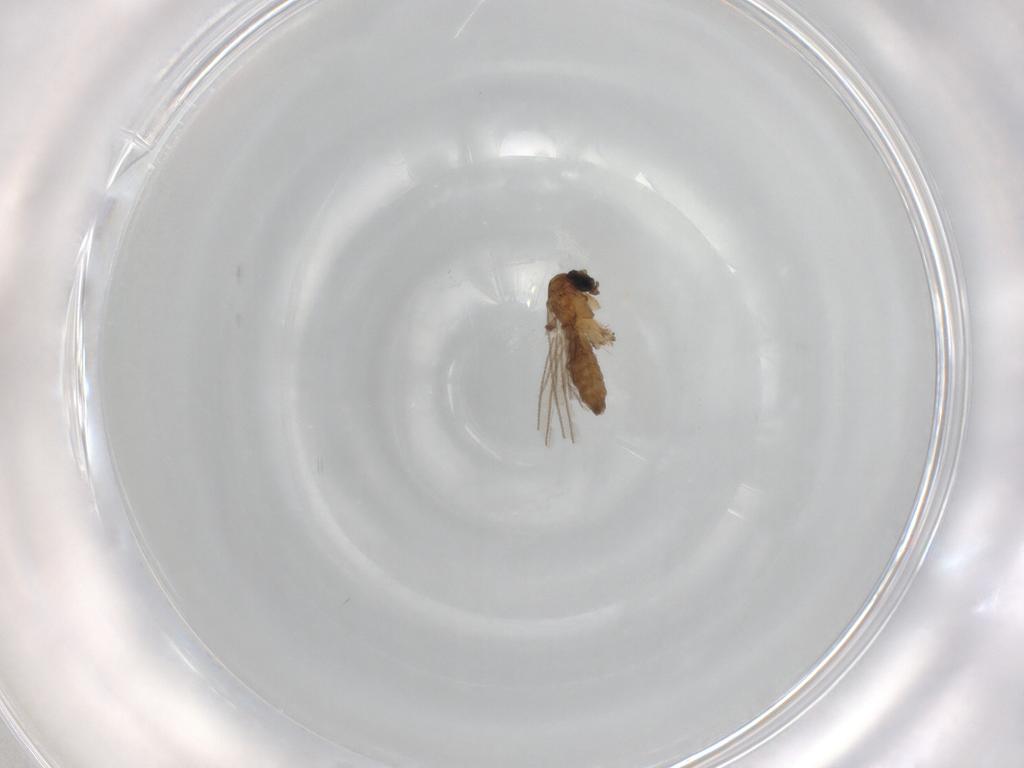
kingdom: Animalia
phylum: Arthropoda
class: Insecta
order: Diptera
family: Sciaridae
